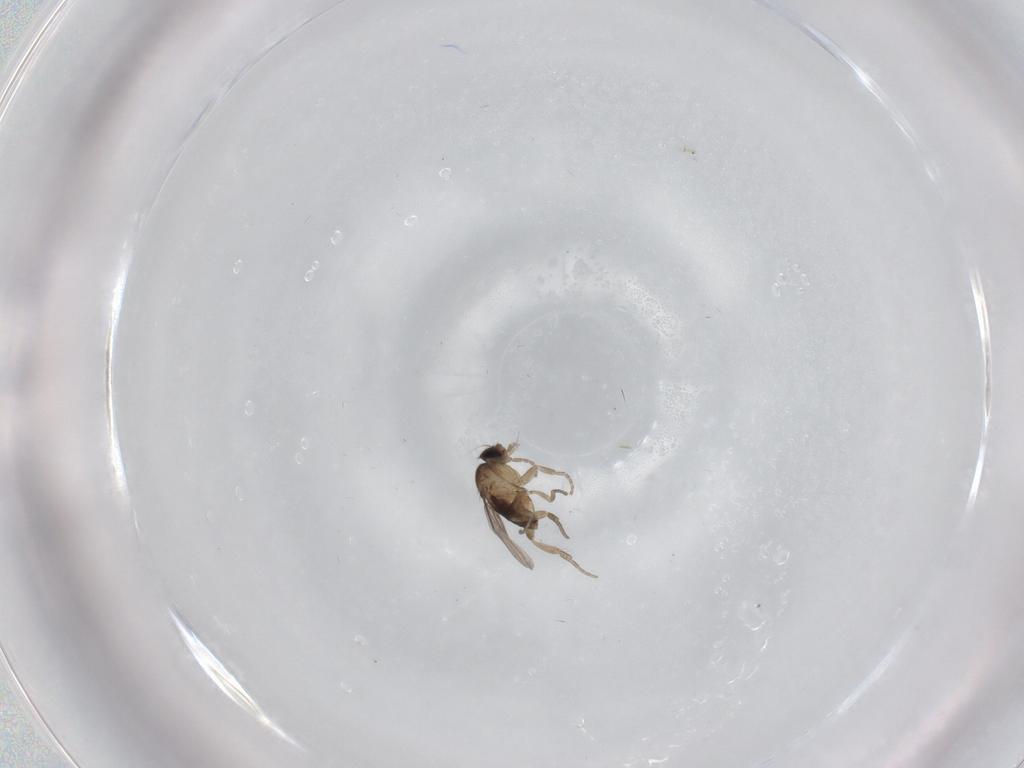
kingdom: Animalia
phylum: Arthropoda
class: Insecta
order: Diptera
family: Phoridae
